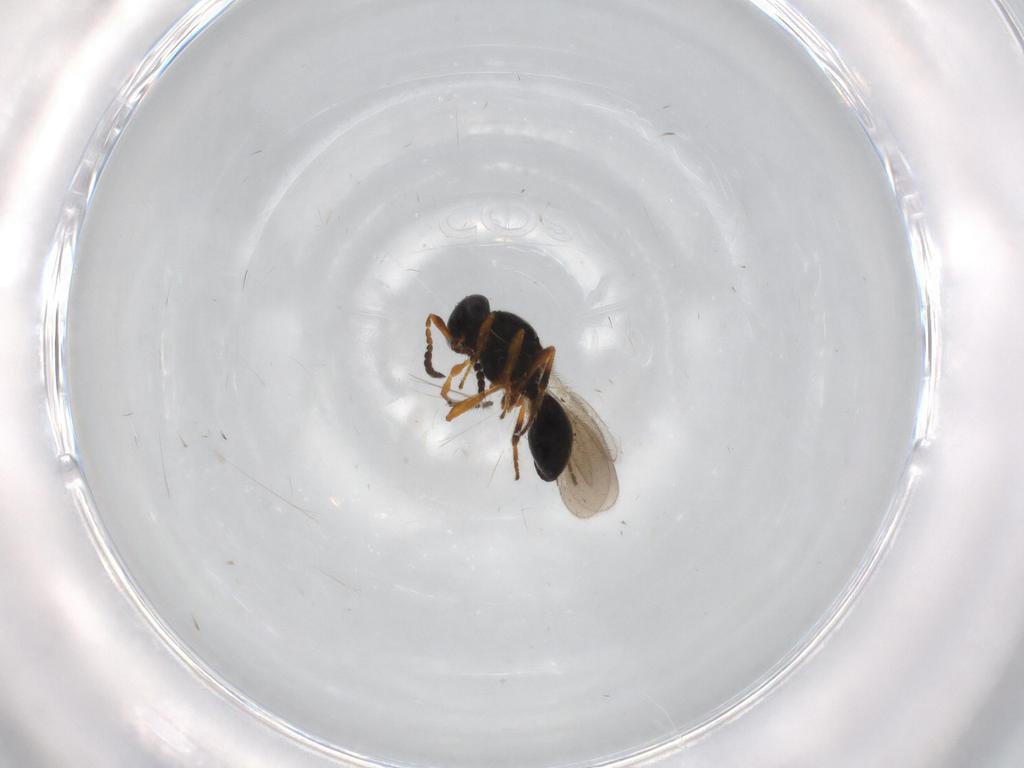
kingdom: Animalia
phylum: Arthropoda
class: Insecta
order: Hymenoptera
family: Platygastridae
